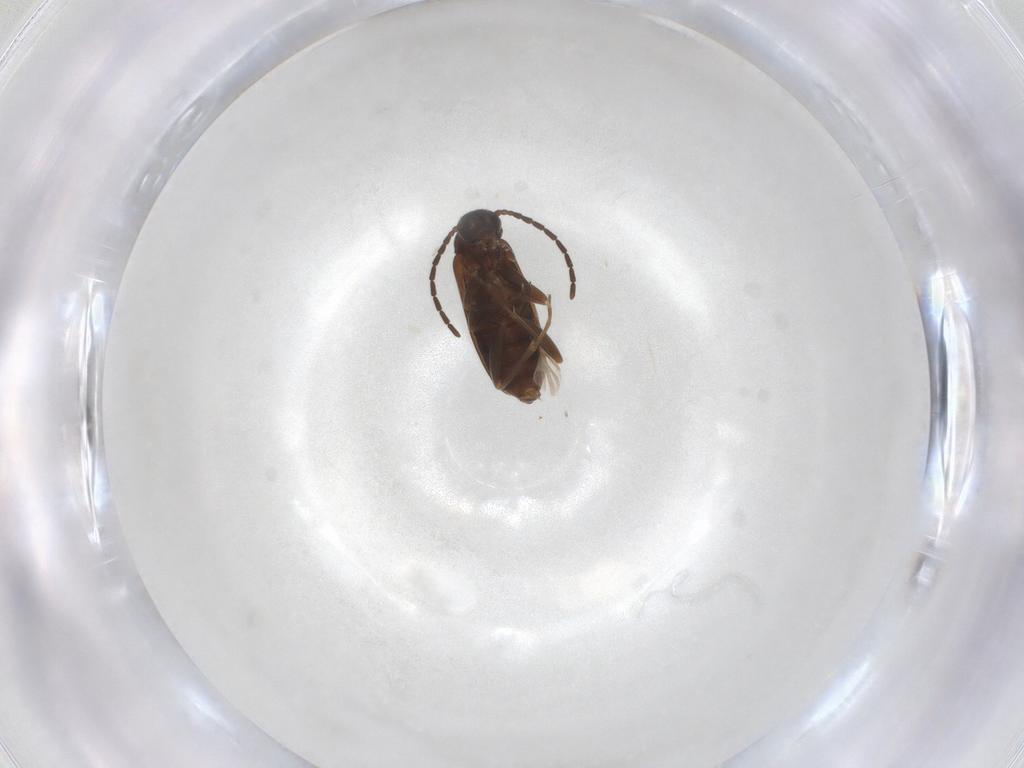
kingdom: Animalia
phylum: Arthropoda
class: Insecta
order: Coleoptera
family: Scraptiidae
